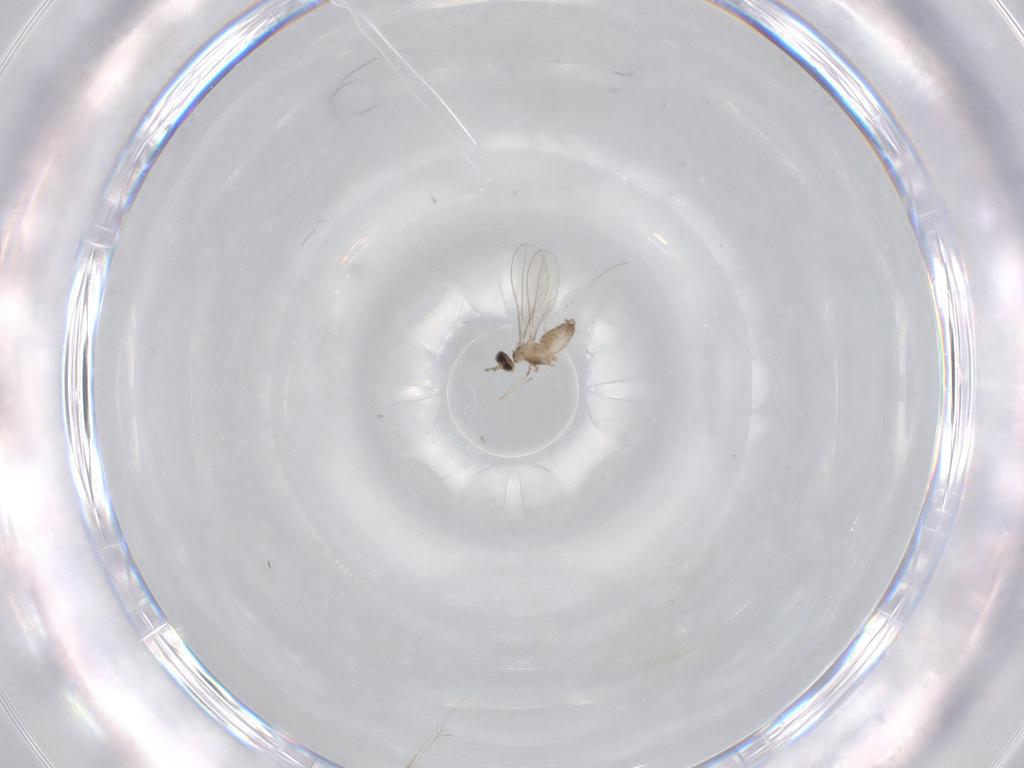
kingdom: Animalia
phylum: Arthropoda
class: Insecta
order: Diptera
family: Cecidomyiidae
